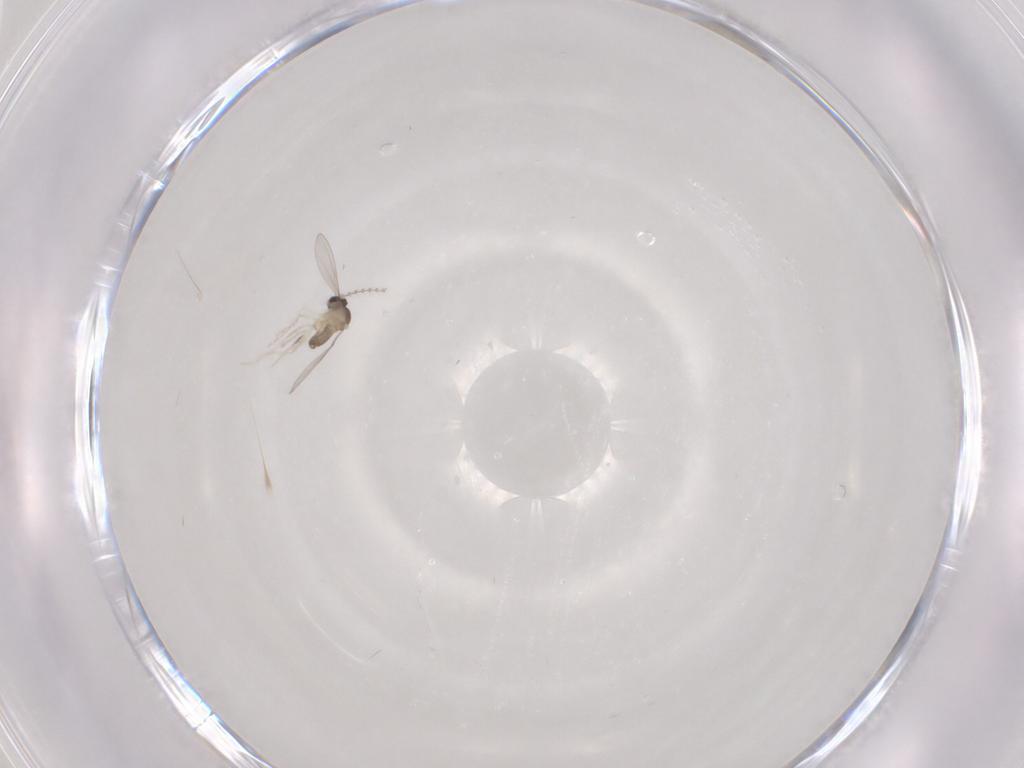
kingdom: Animalia
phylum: Arthropoda
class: Insecta
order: Diptera
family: Cecidomyiidae
